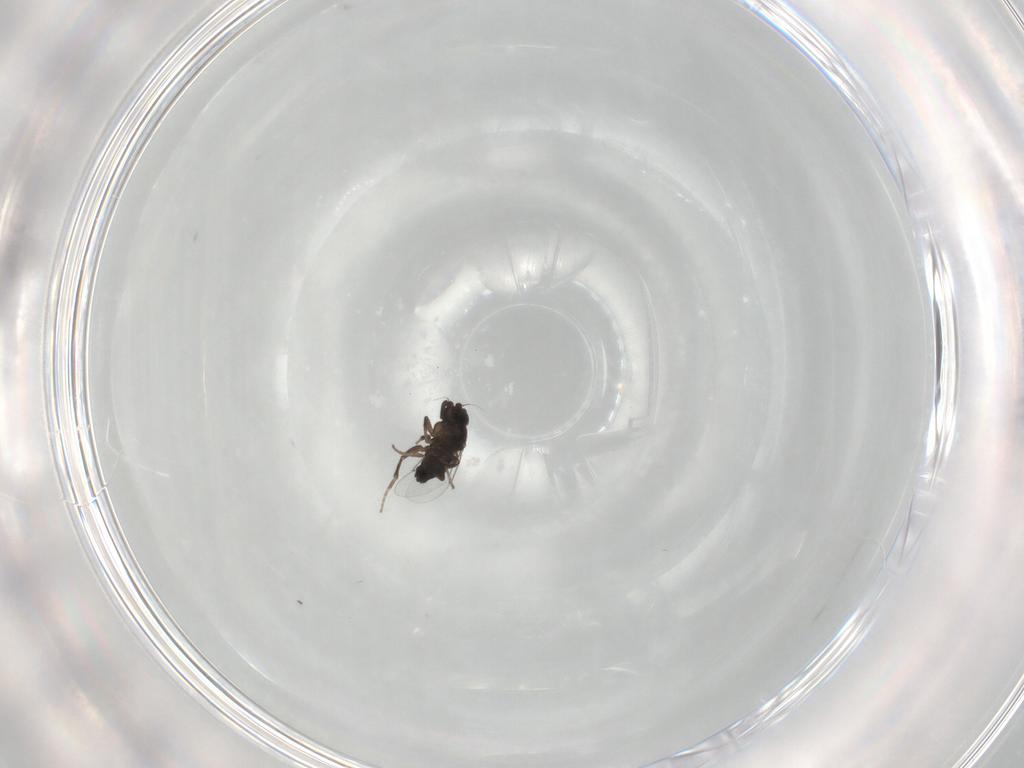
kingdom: Animalia
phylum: Arthropoda
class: Insecta
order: Diptera
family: Phoridae
